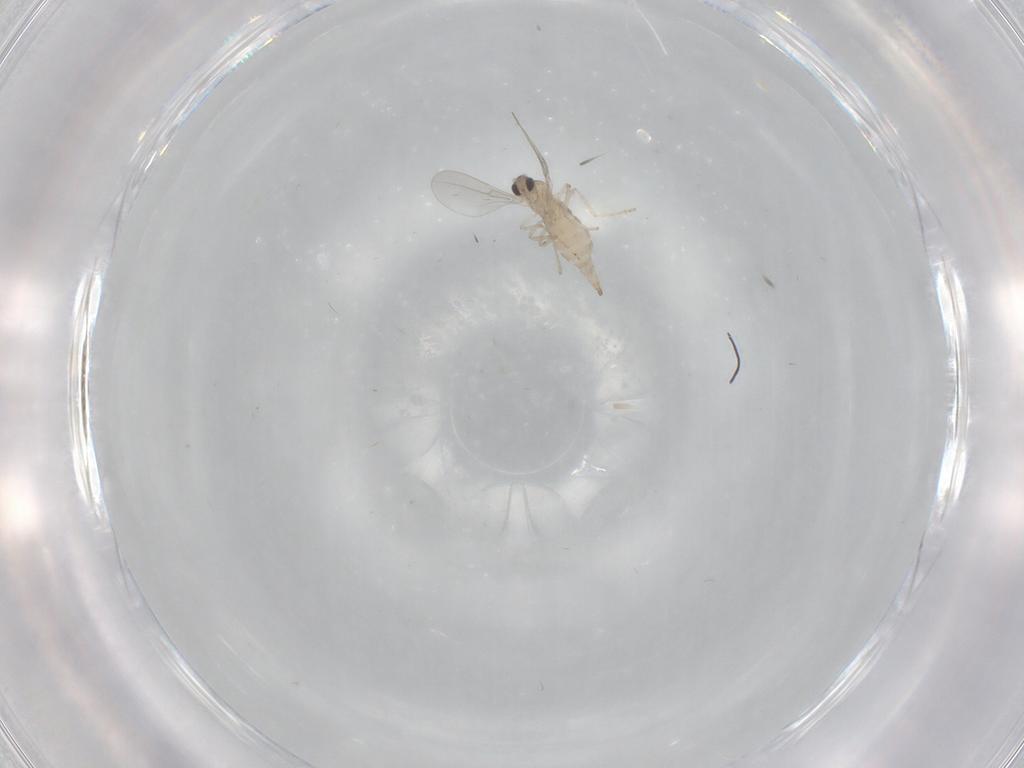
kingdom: Animalia
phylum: Arthropoda
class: Insecta
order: Diptera
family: Cecidomyiidae
